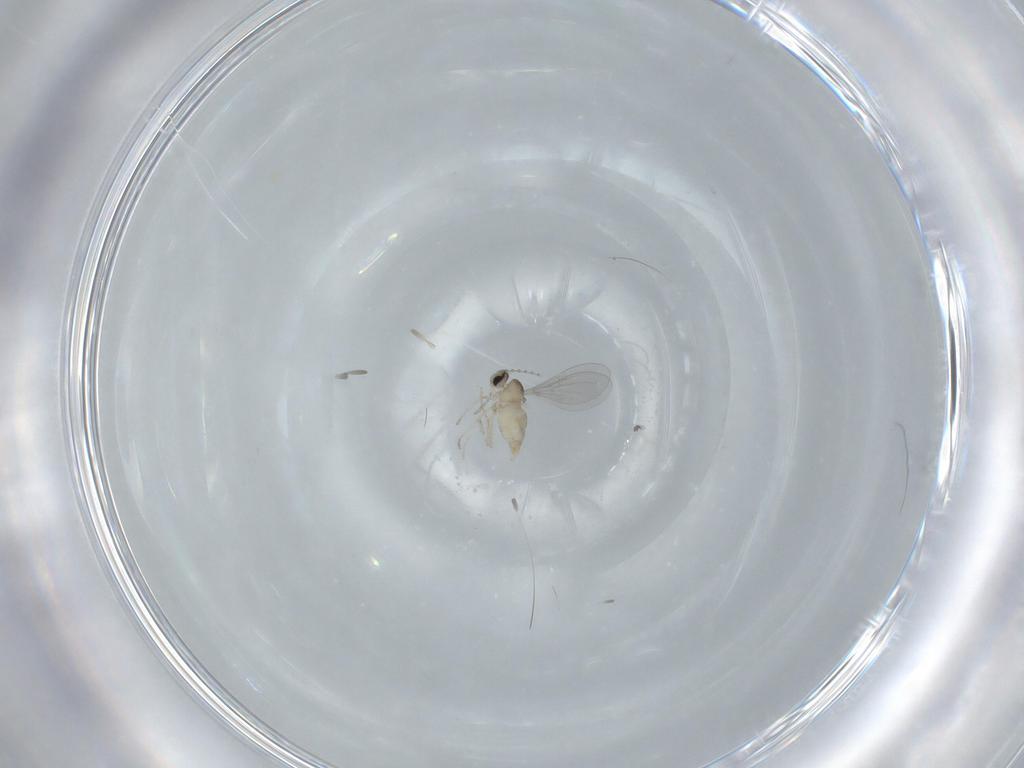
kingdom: Animalia
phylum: Arthropoda
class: Insecta
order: Diptera
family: Cecidomyiidae
